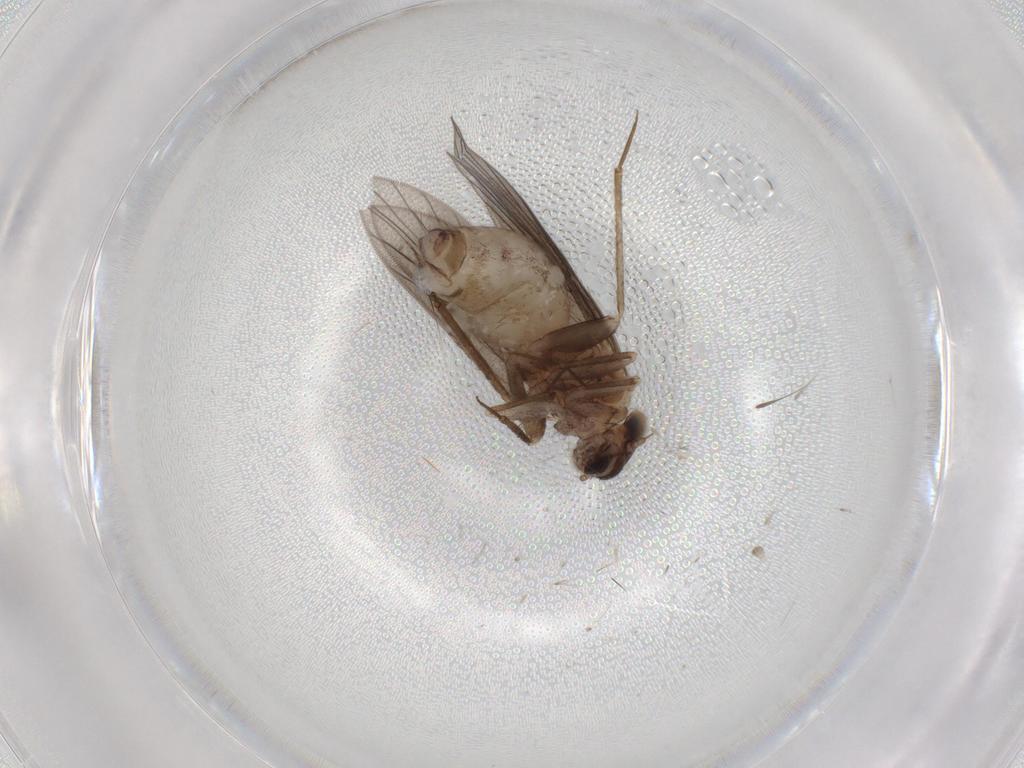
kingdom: Animalia
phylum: Arthropoda
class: Insecta
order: Psocodea
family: Lepidopsocidae
